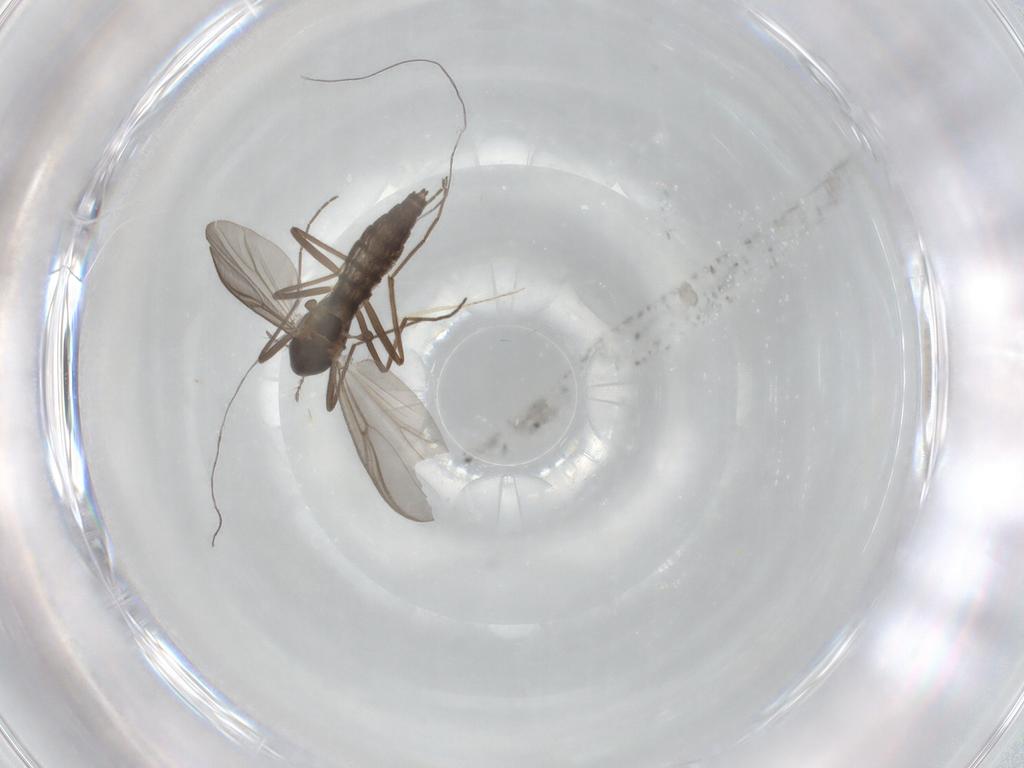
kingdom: Animalia
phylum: Arthropoda
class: Insecta
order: Diptera
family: Chironomidae
